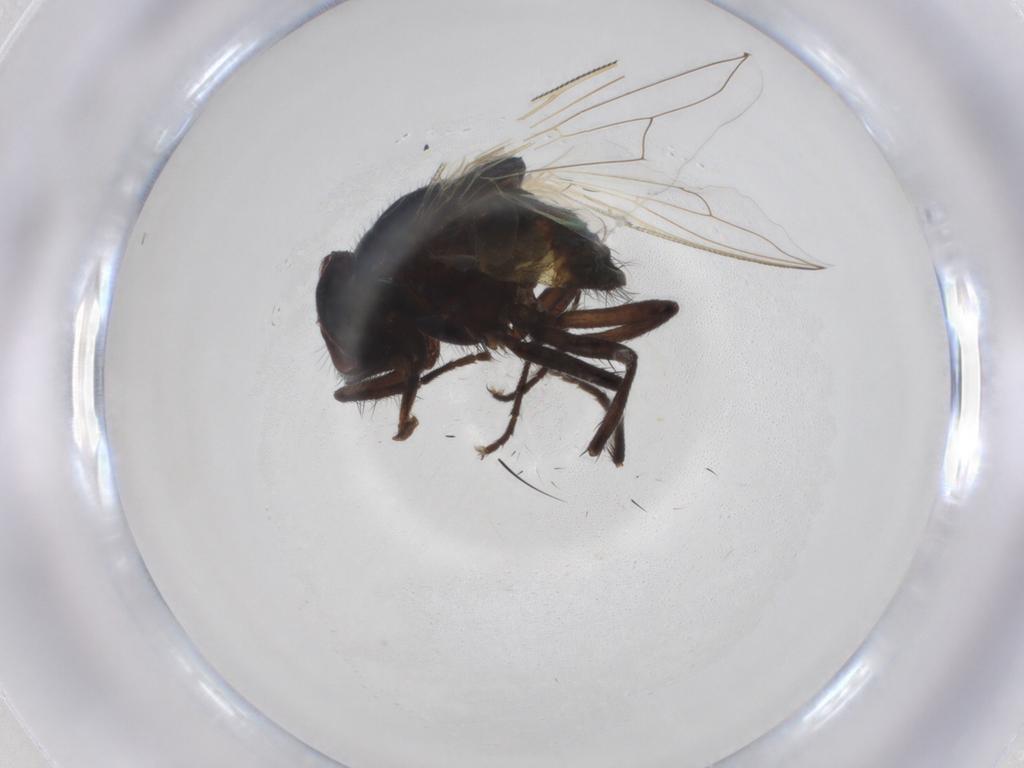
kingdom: Animalia
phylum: Arthropoda
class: Insecta
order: Diptera
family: Muscidae
